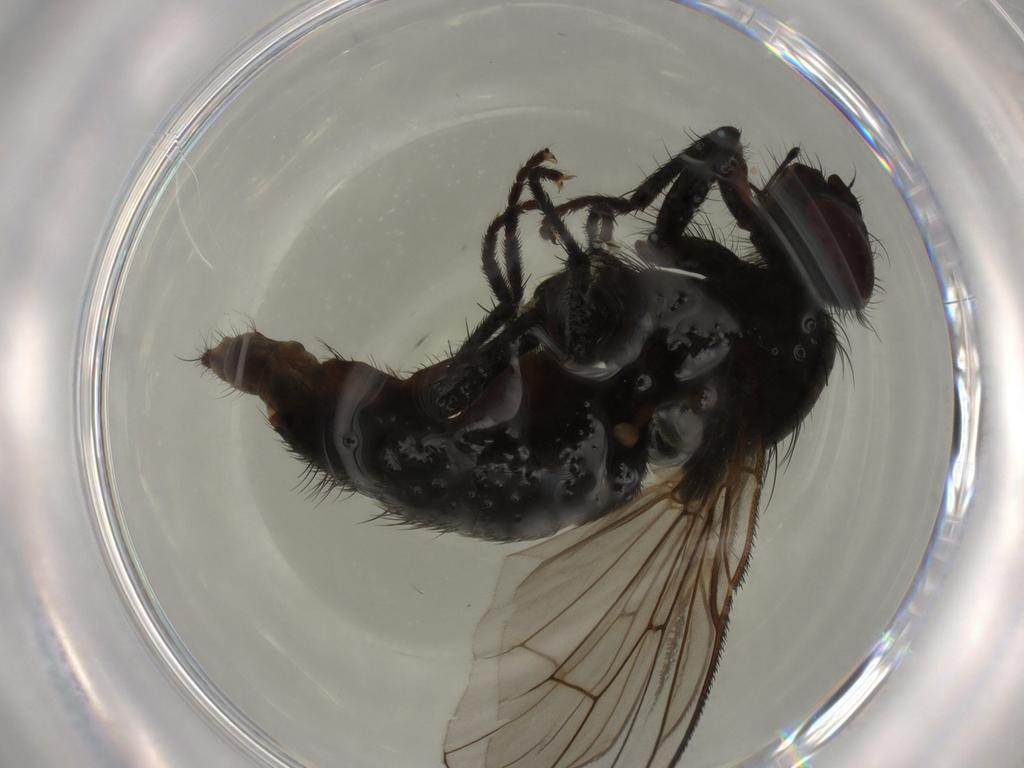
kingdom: Animalia
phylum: Arthropoda
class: Insecta
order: Diptera
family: Muscidae
